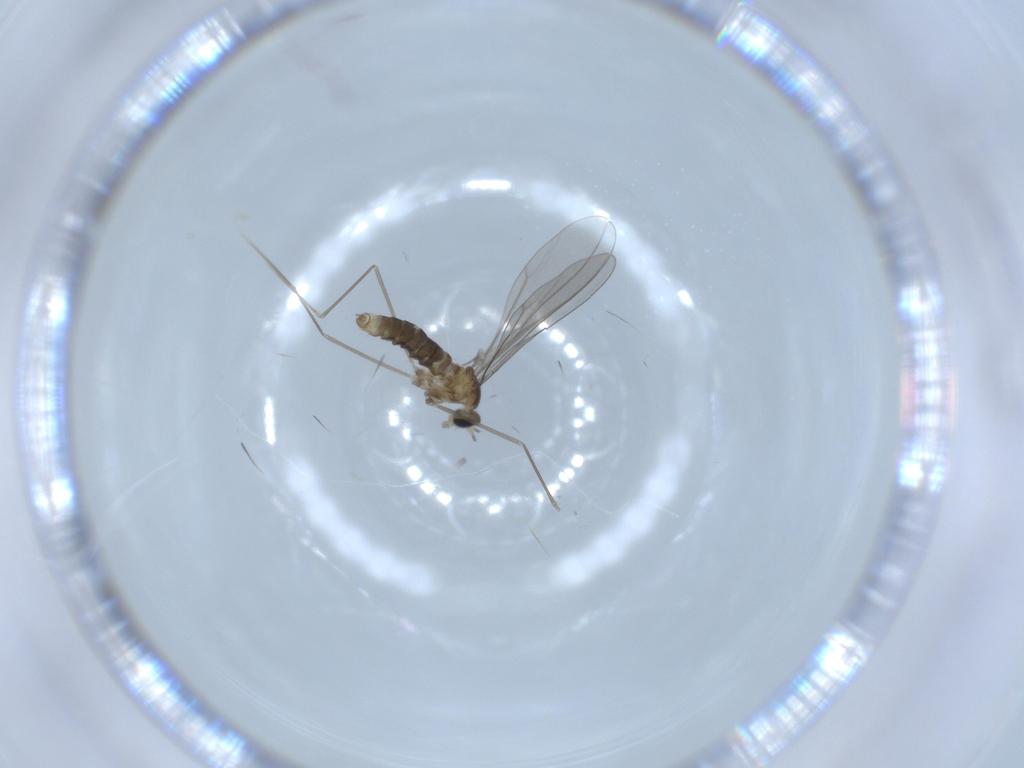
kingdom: Animalia
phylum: Arthropoda
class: Insecta
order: Diptera
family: Cecidomyiidae
